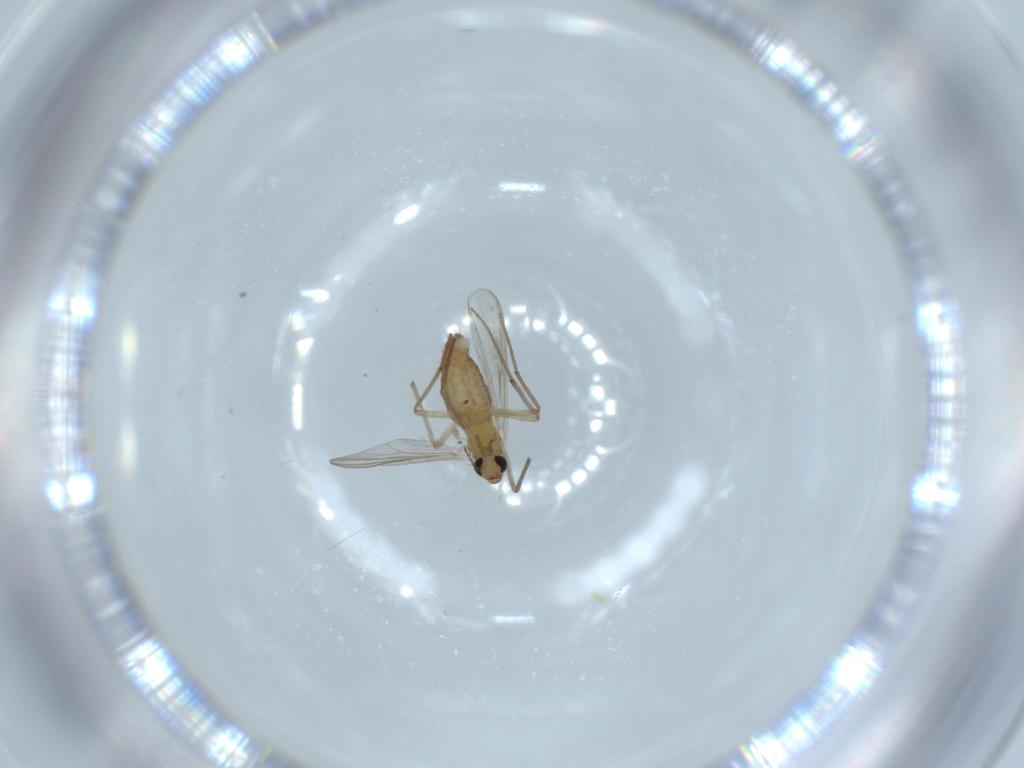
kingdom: Animalia
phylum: Arthropoda
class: Insecta
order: Diptera
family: Chironomidae
